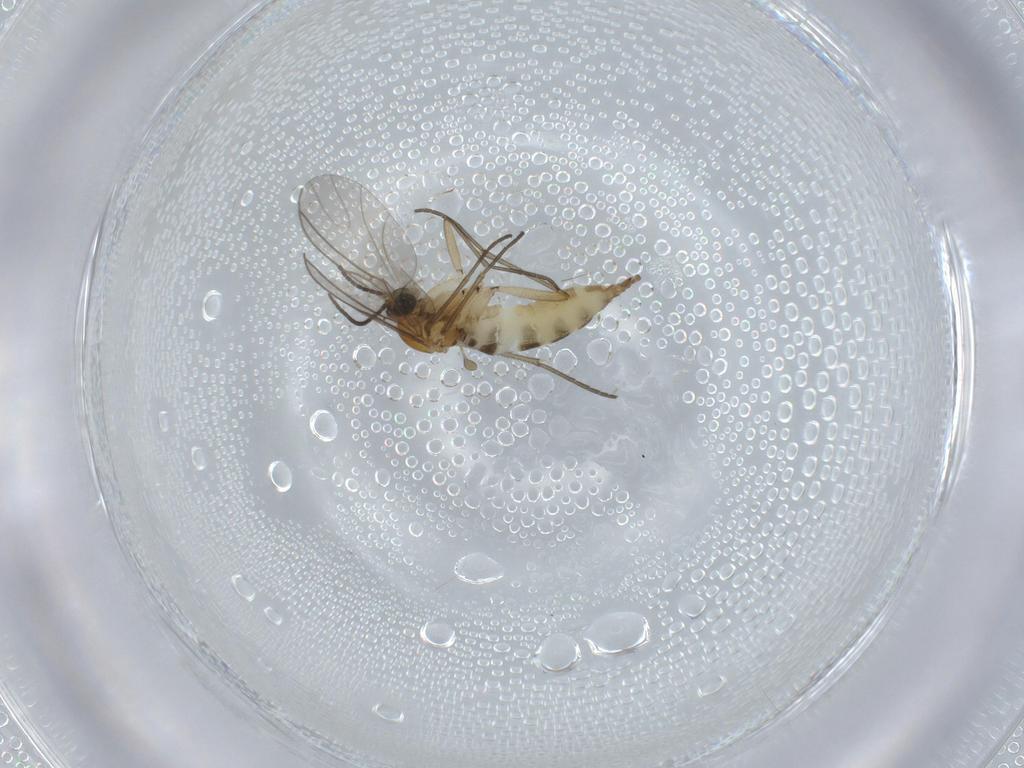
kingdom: Animalia
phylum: Arthropoda
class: Insecta
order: Diptera
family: Sciaridae
